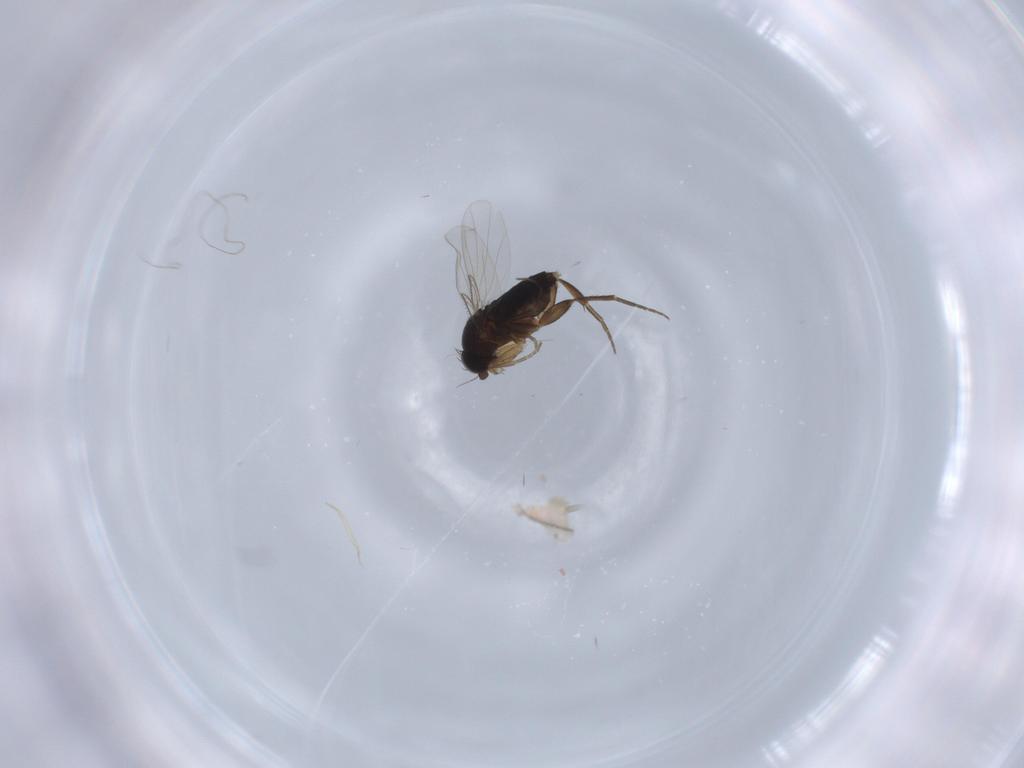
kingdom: Animalia
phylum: Arthropoda
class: Insecta
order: Diptera
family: Phoridae
